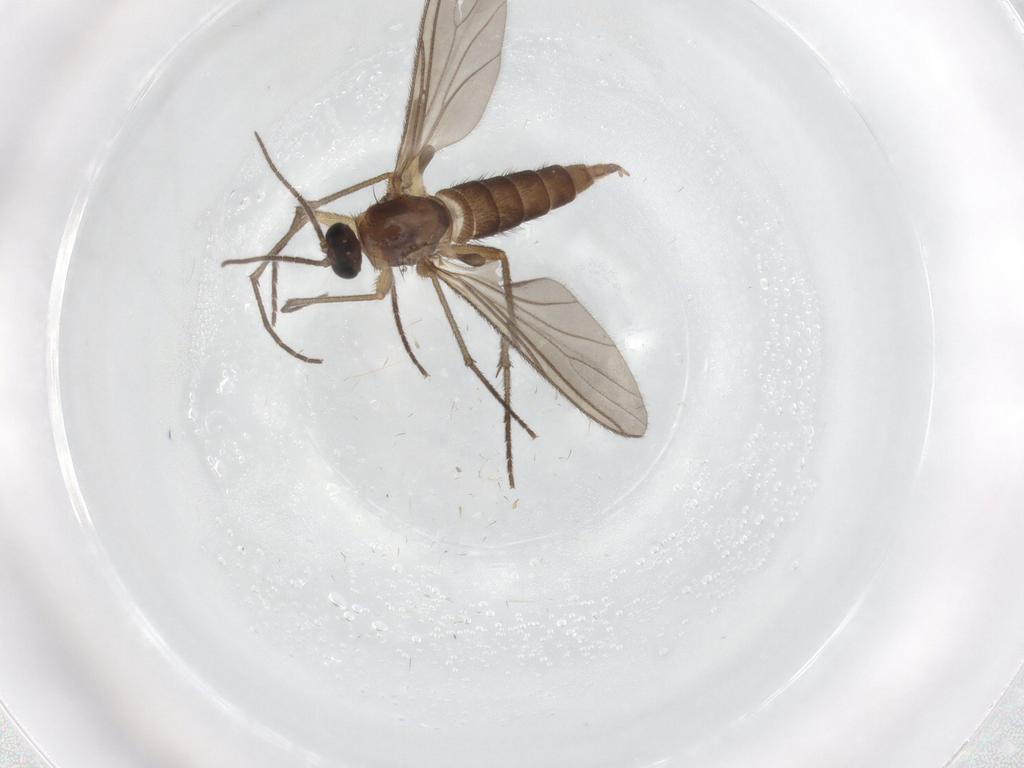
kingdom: Animalia
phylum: Arthropoda
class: Insecta
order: Diptera
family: Sciaridae
